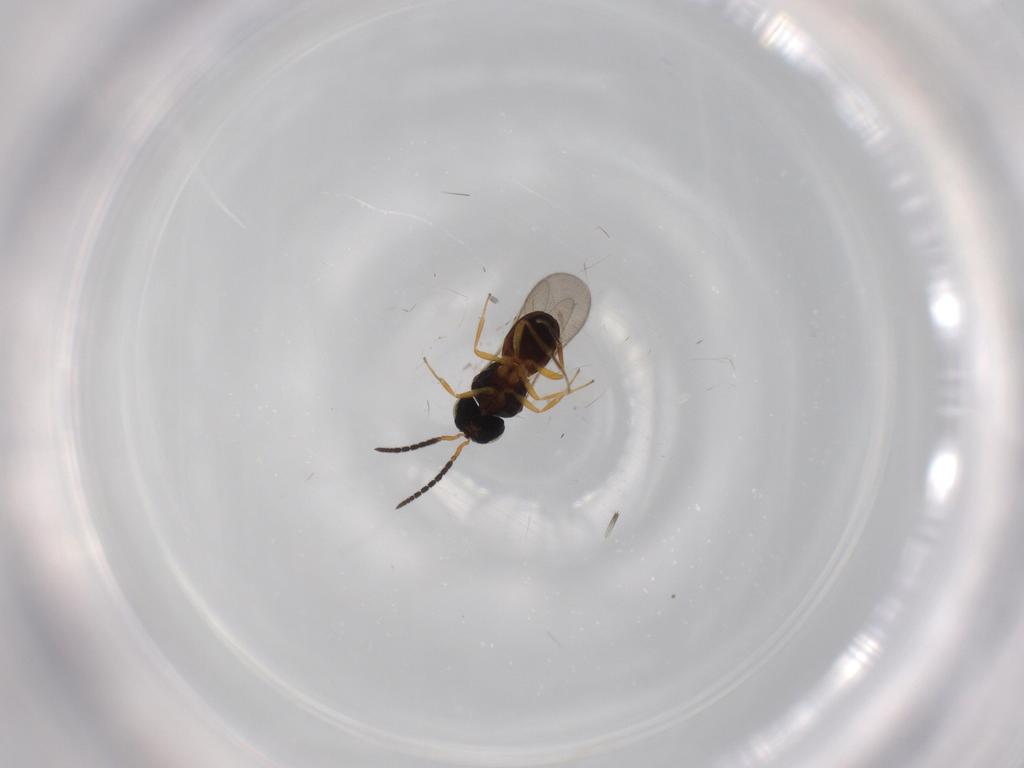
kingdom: Animalia
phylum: Arthropoda
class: Insecta
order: Hymenoptera
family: Scelionidae
